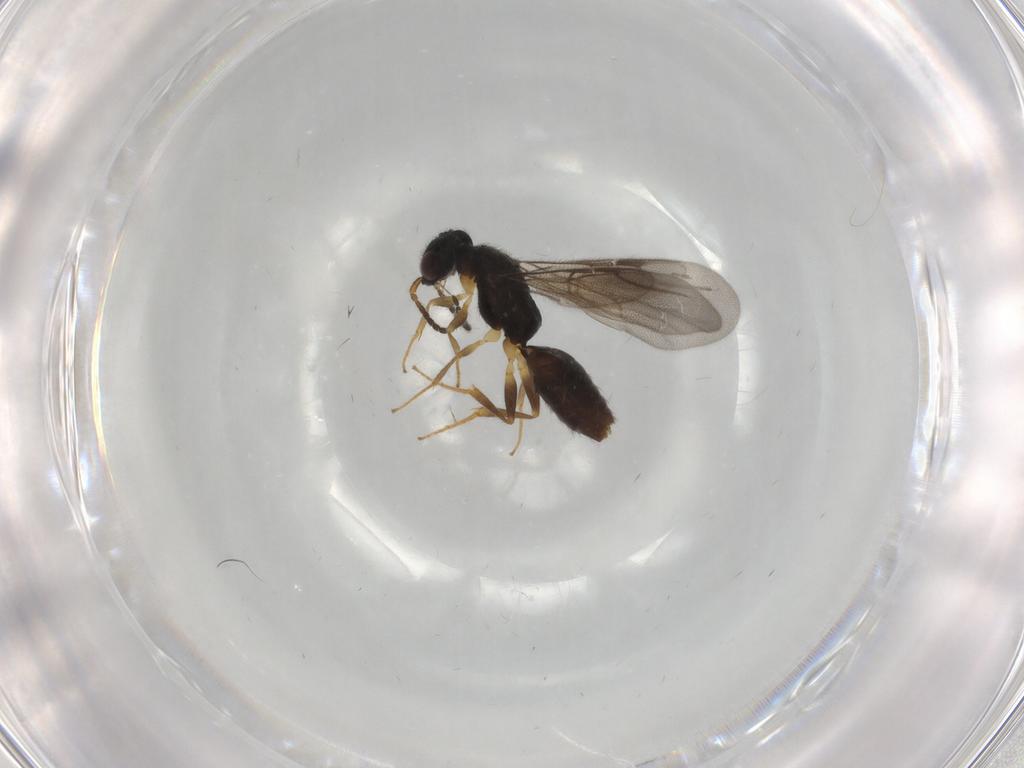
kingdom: Animalia
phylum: Arthropoda
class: Insecta
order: Hymenoptera
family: Bethylidae
